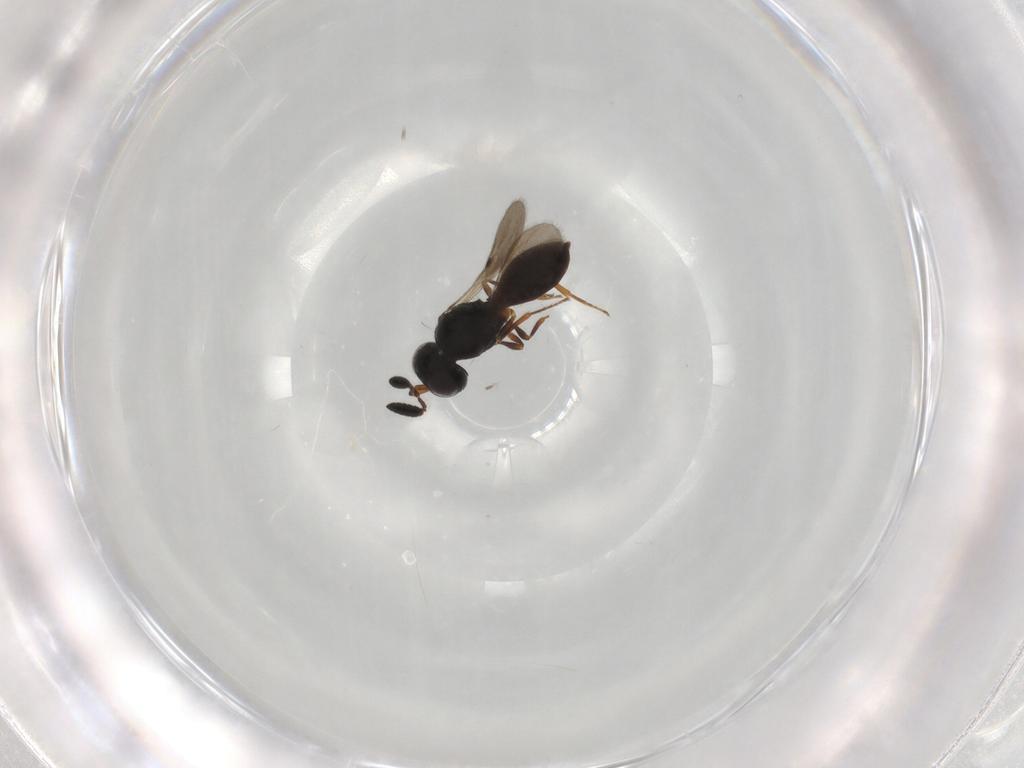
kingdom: Animalia
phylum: Arthropoda
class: Insecta
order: Hymenoptera
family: Scelionidae
